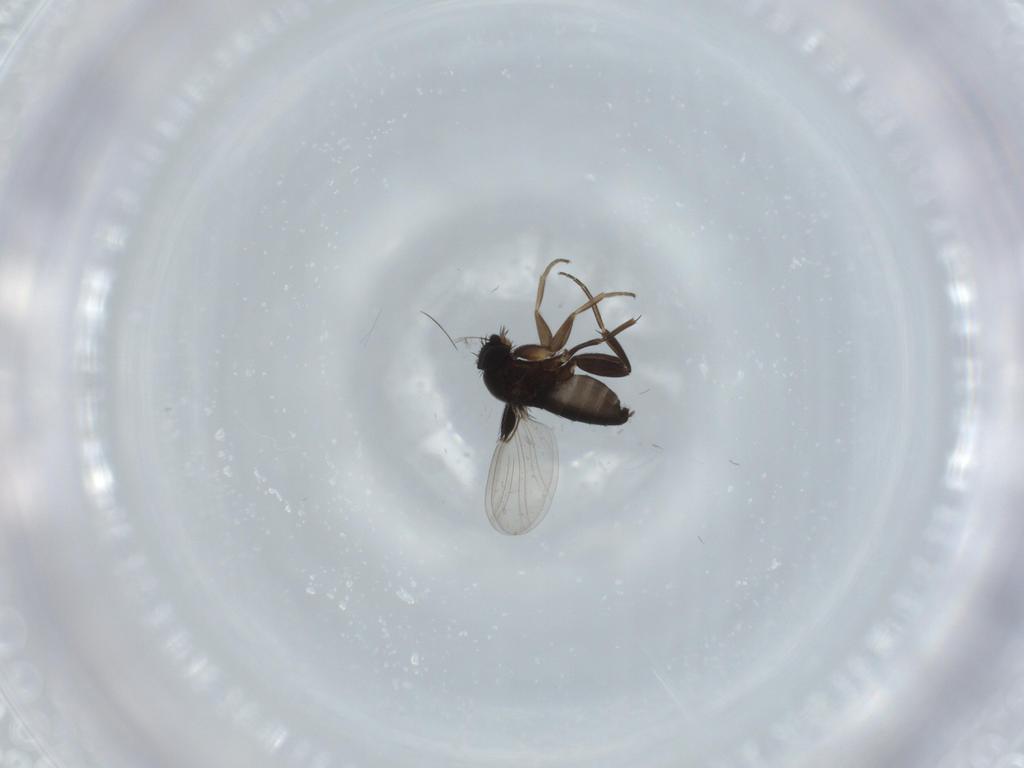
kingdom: Animalia
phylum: Arthropoda
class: Insecta
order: Diptera
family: Phoridae
